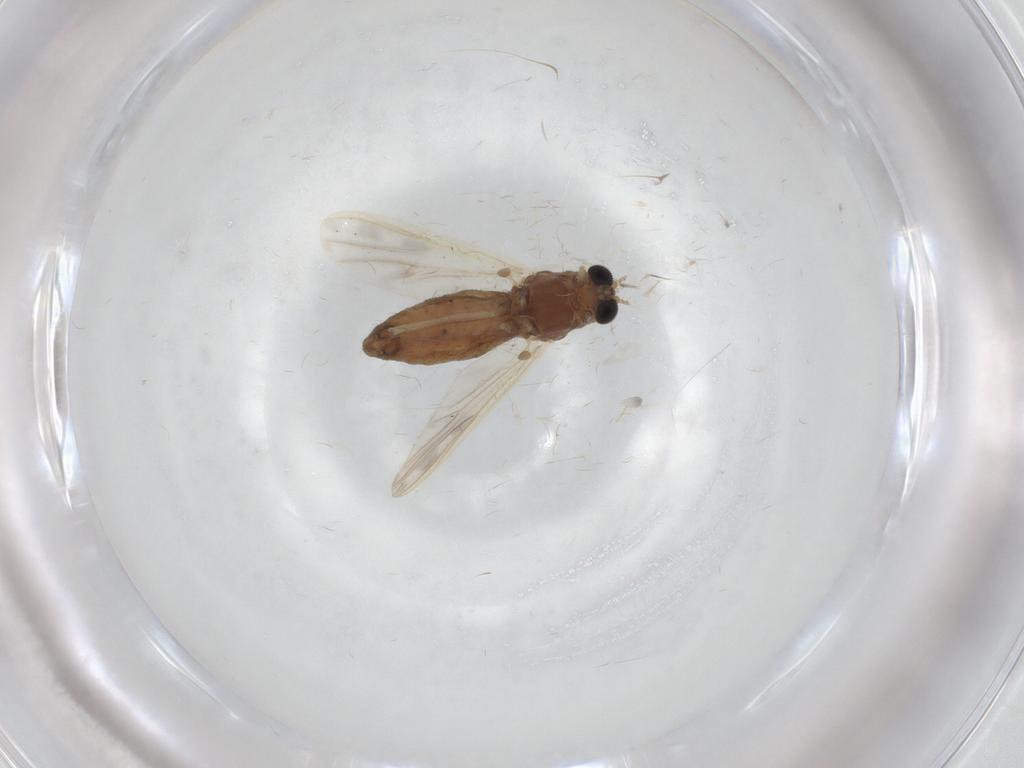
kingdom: Animalia
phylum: Arthropoda
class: Insecta
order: Diptera
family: Chironomidae
